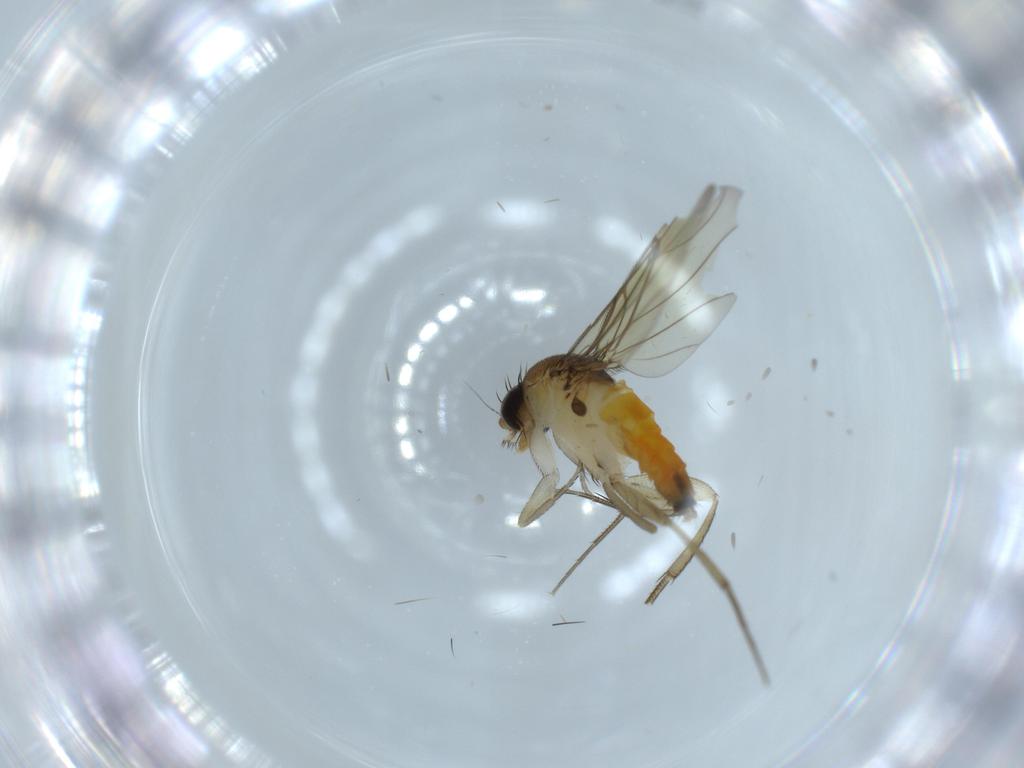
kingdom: Animalia
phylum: Arthropoda
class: Insecta
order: Diptera
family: Phoridae
